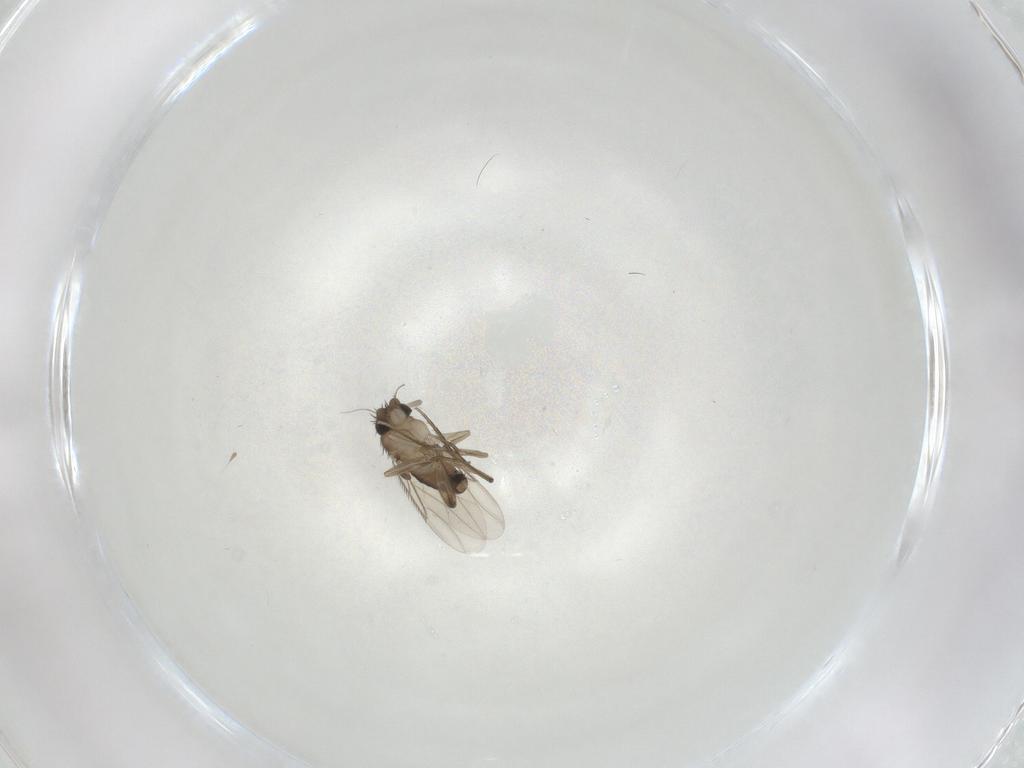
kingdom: Animalia
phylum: Arthropoda
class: Insecta
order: Diptera
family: Phoridae
